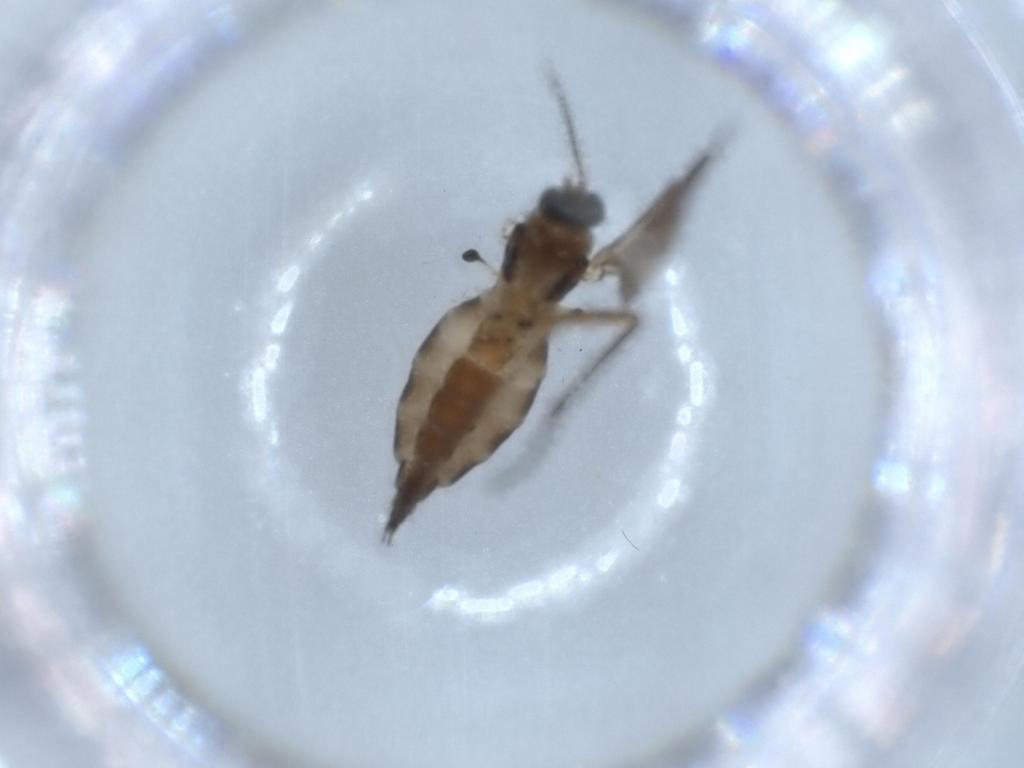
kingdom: Animalia
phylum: Arthropoda
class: Insecta
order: Diptera
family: Sciaridae
